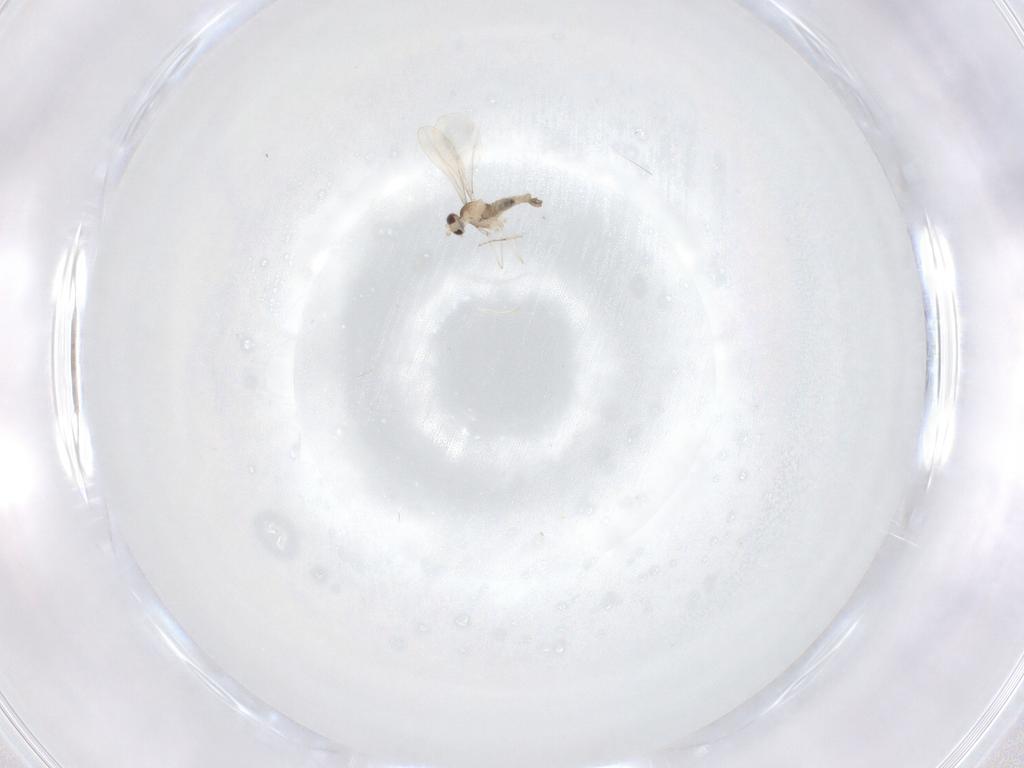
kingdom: Animalia
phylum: Arthropoda
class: Insecta
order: Diptera
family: Cecidomyiidae
